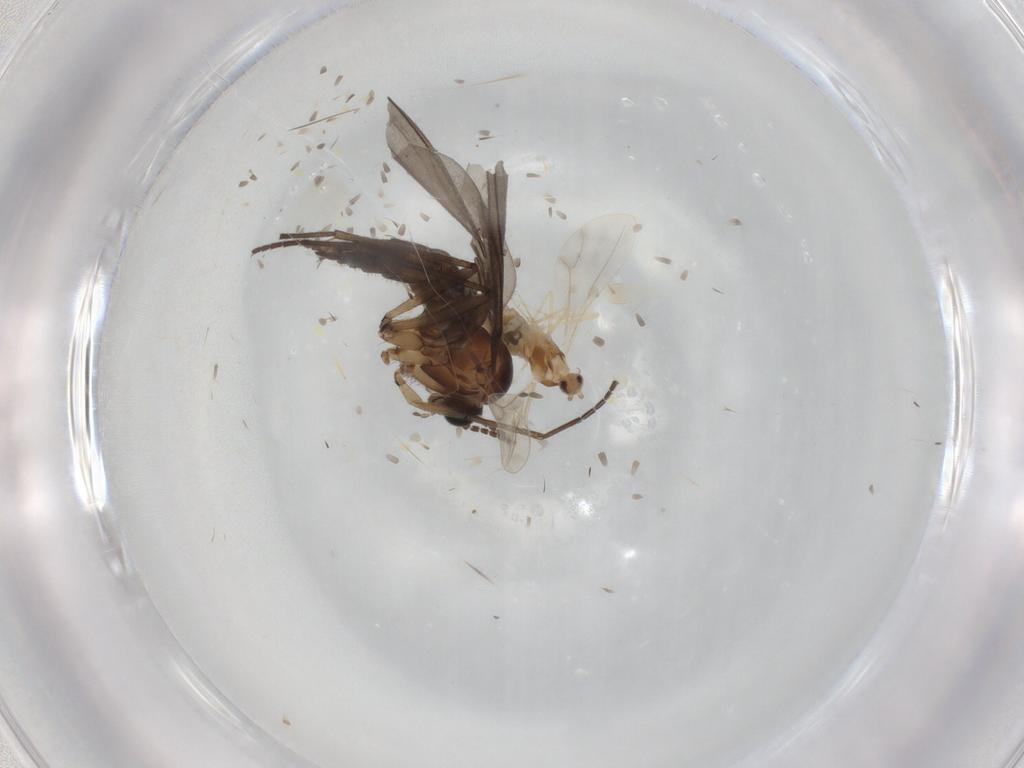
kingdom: Animalia
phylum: Arthropoda
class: Insecta
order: Diptera
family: Cecidomyiidae
